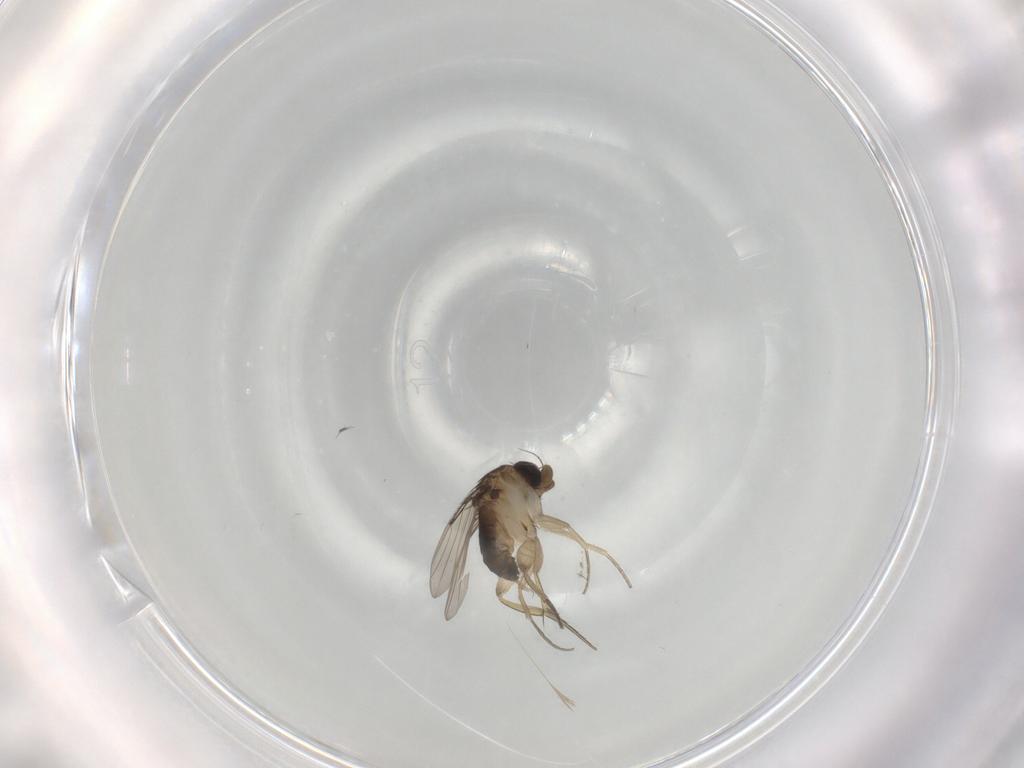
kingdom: Animalia
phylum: Arthropoda
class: Insecta
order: Diptera
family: Phoridae
